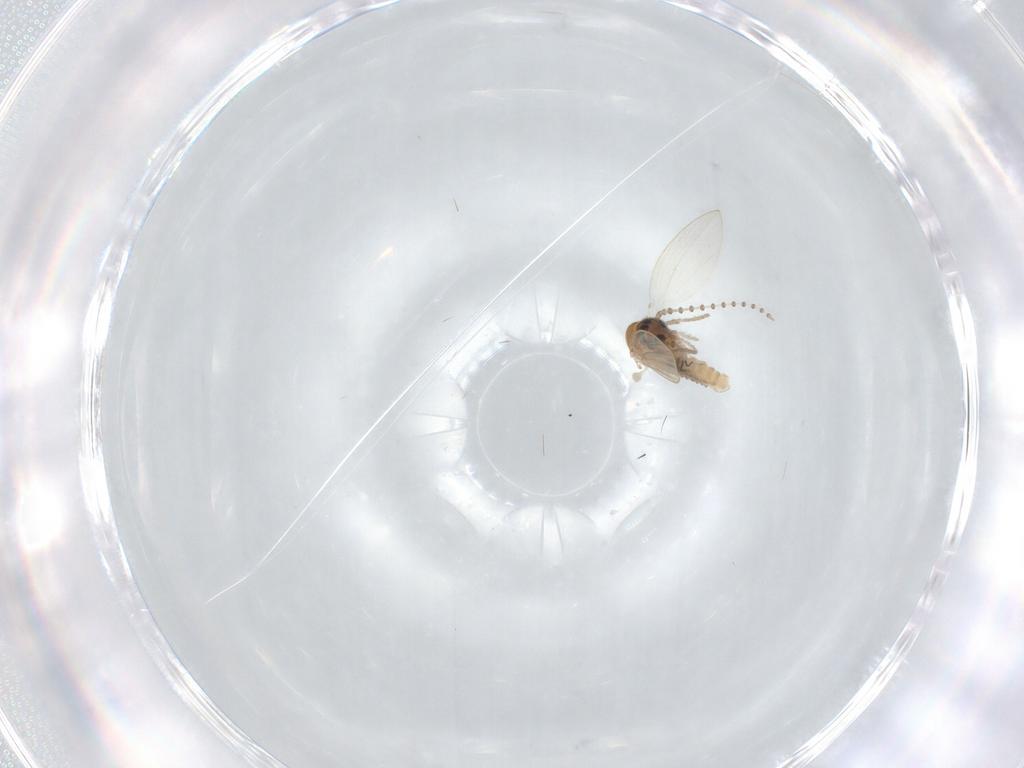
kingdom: Animalia
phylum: Arthropoda
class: Insecta
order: Diptera
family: Psychodidae
